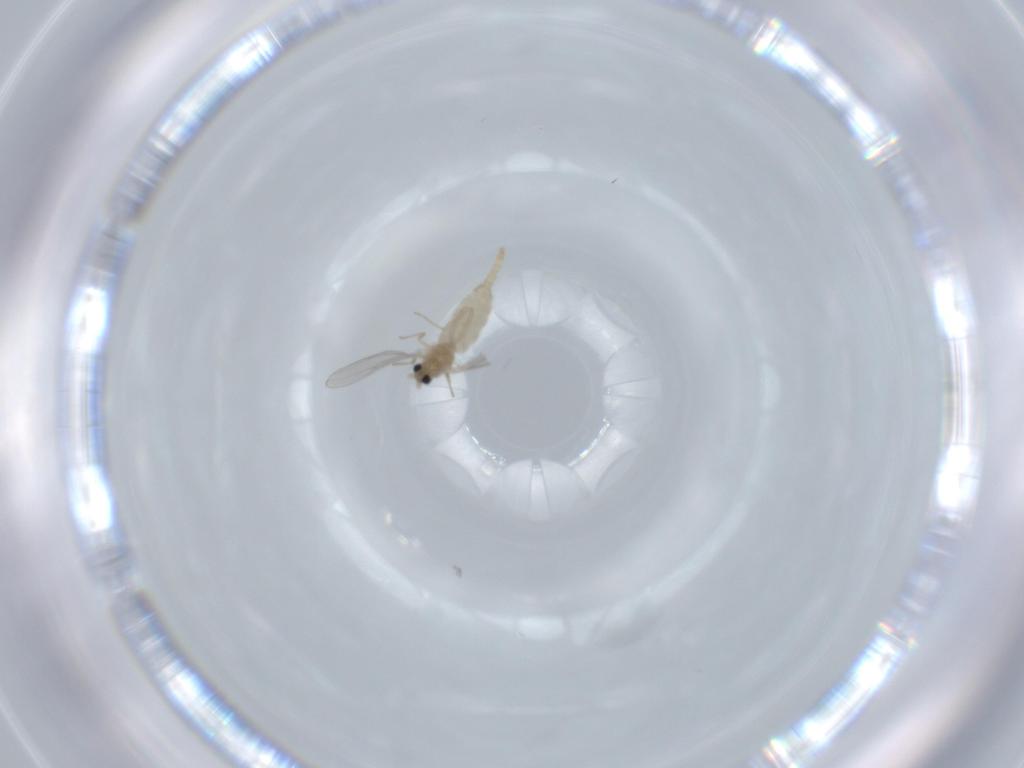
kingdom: Animalia
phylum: Arthropoda
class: Insecta
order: Diptera
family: Cecidomyiidae
